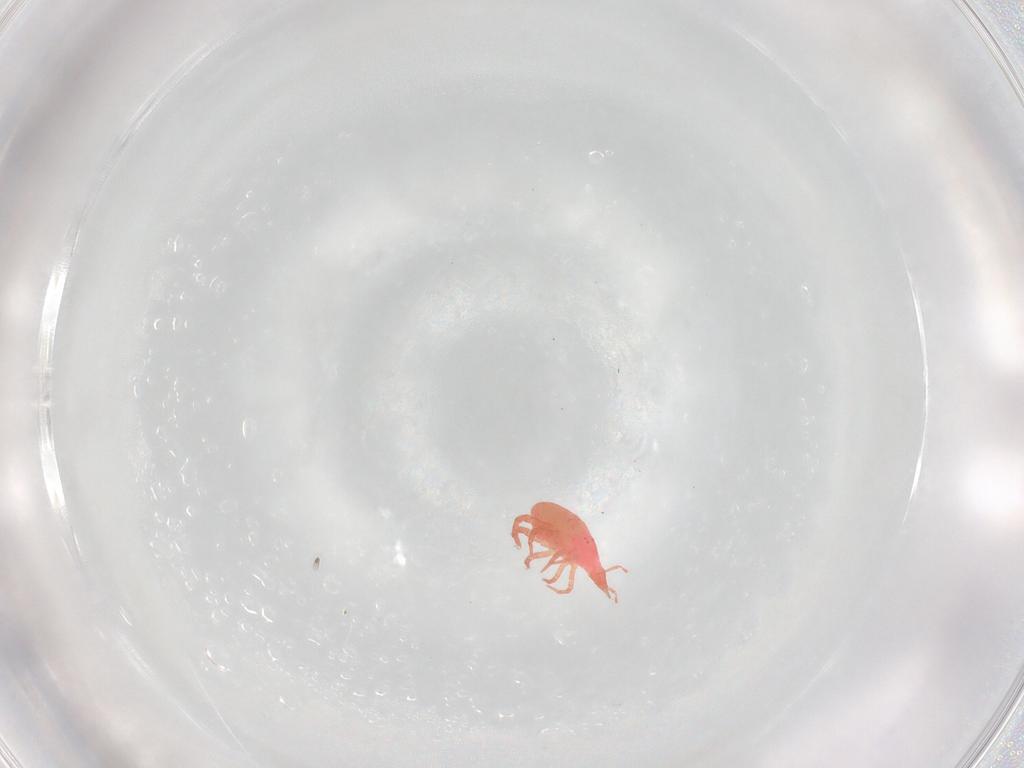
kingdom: Animalia
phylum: Arthropoda
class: Arachnida
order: Trombidiformes
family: Bdellidae
